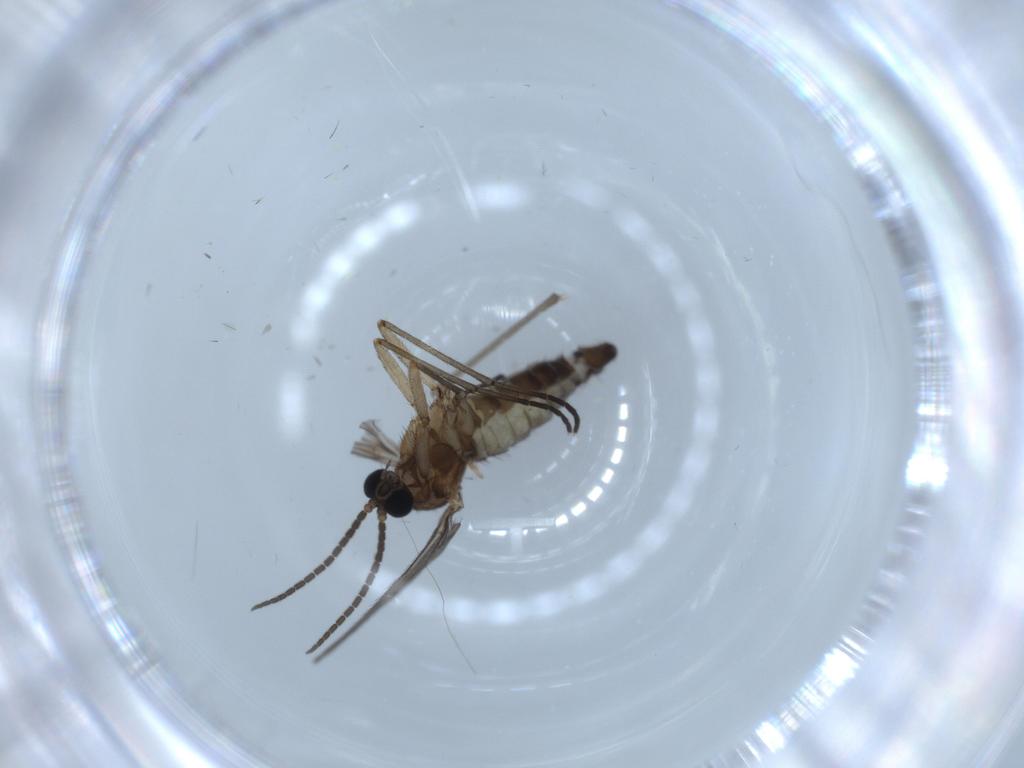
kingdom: Animalia
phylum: Arthropoda
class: Insecta
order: Diptera
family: Sciaridae
